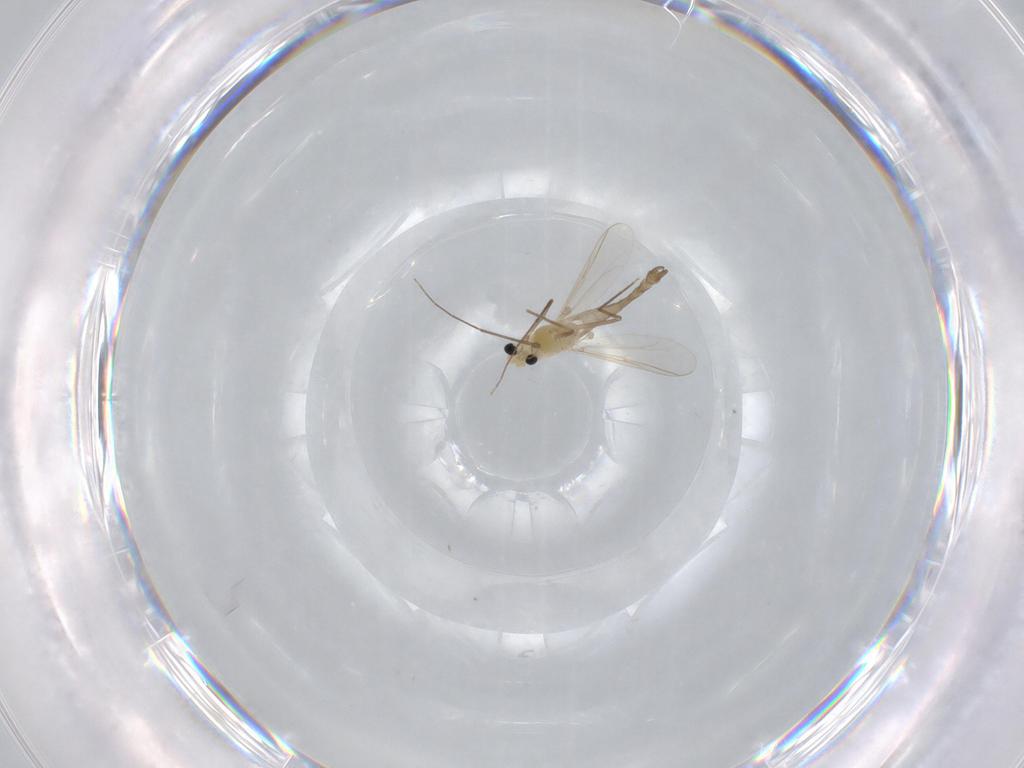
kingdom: Animalia
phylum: Arthropoda
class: Insecta
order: Diptera
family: Chironomidae
